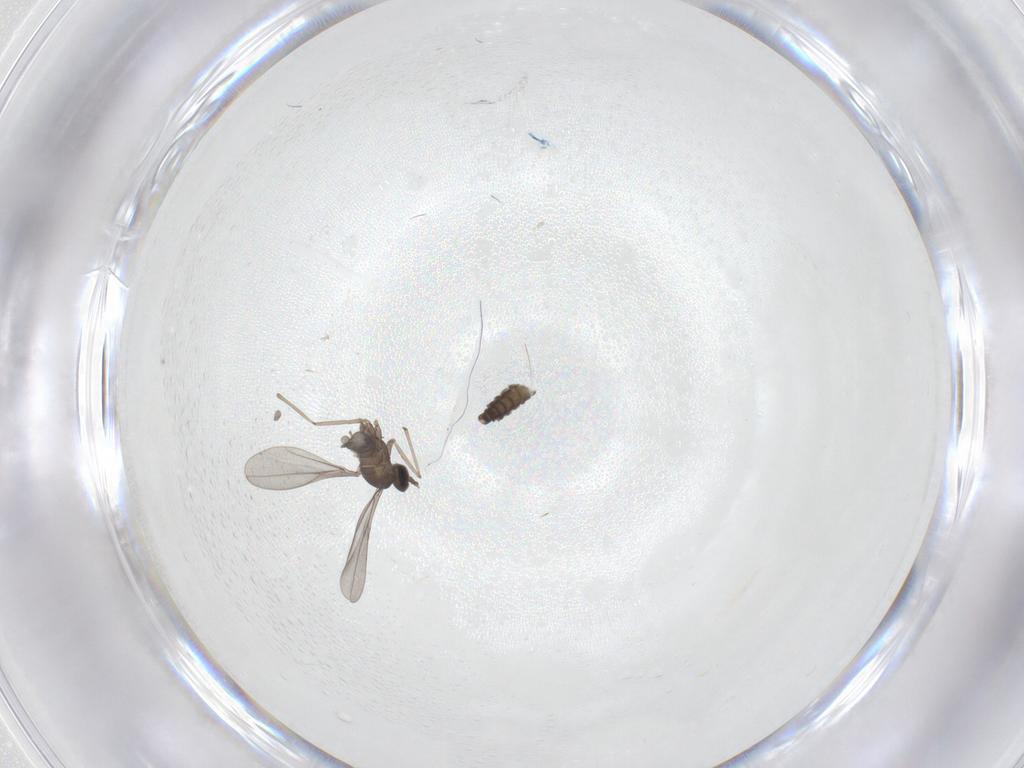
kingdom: Animalia
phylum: Arthropoda
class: Insecta
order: Diptera
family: Cecidomyiidae
